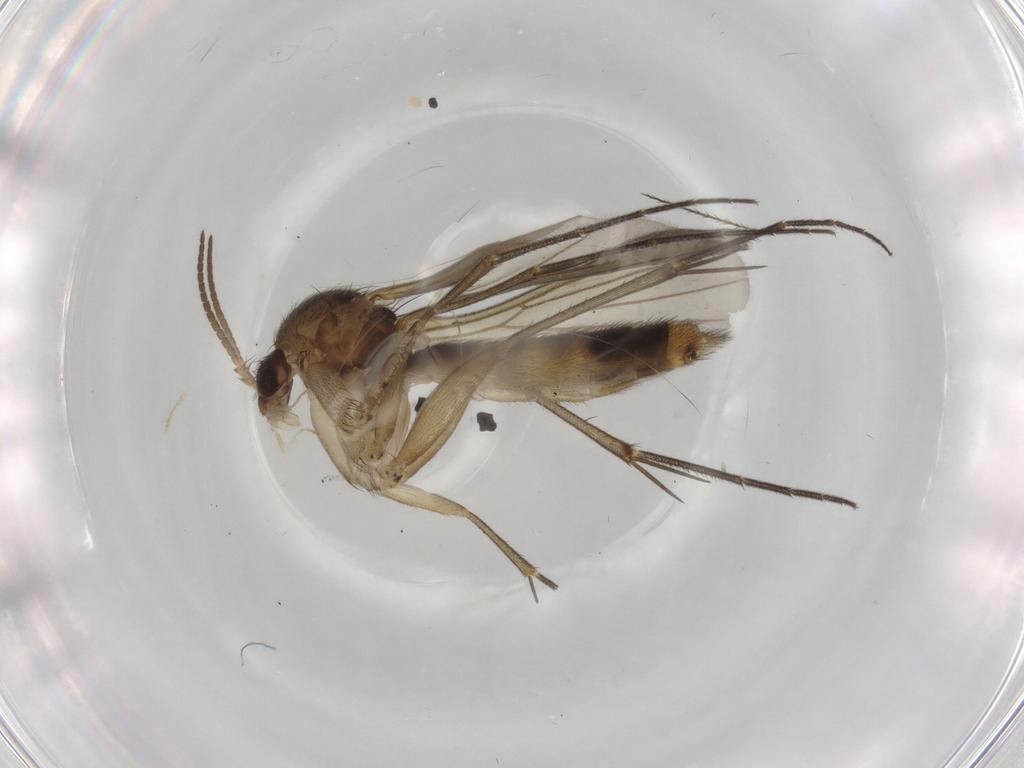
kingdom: Animalia
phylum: Arthropoda
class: Insecta
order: Diptera
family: Mycetophilidae
